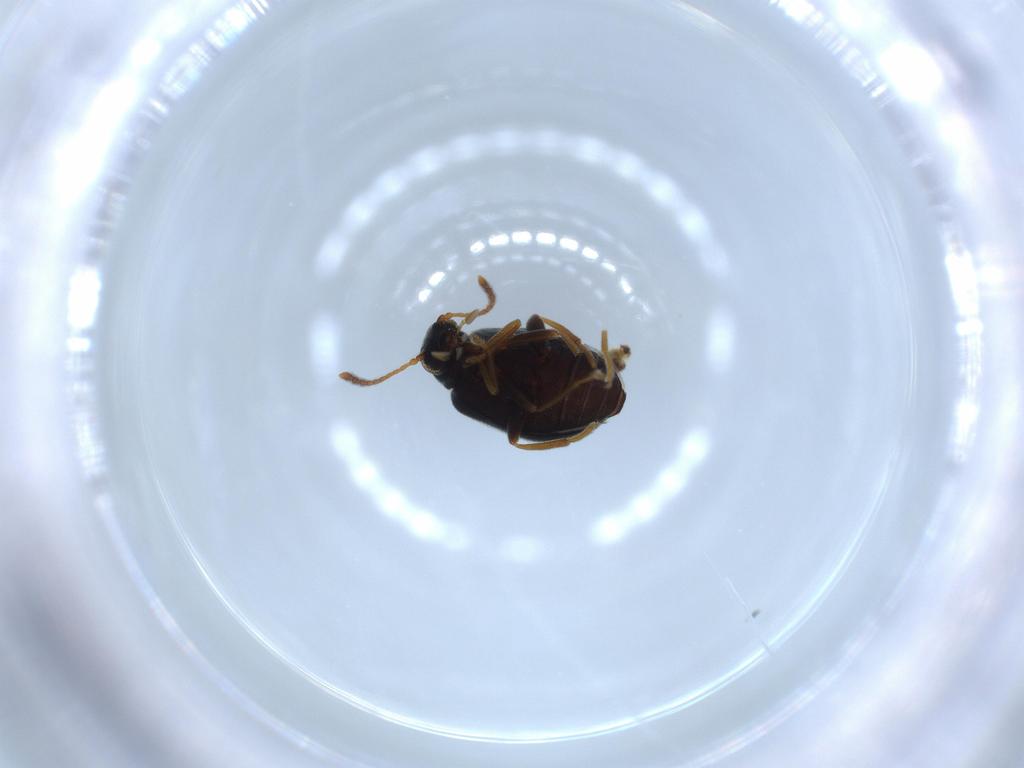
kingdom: Animalia
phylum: Arthropoda
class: Insecta
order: Coleoptera
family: Aderidae
